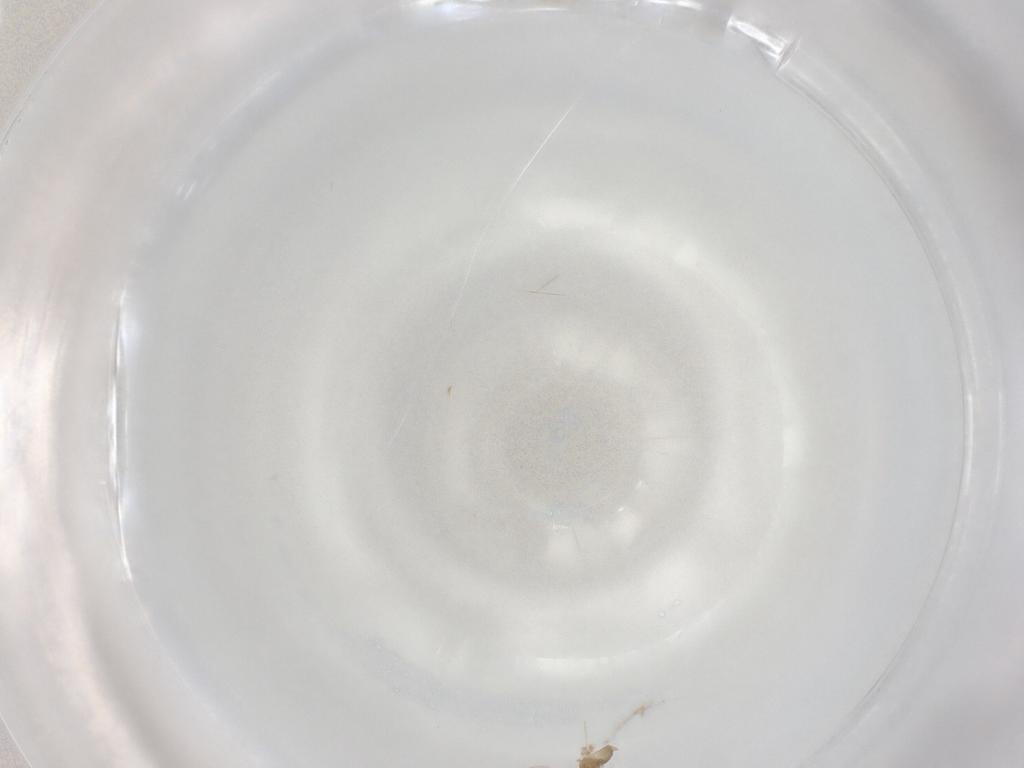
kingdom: Animalia
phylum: Arthropoda
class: Insecta
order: Diptera
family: Cecidomyiidae
